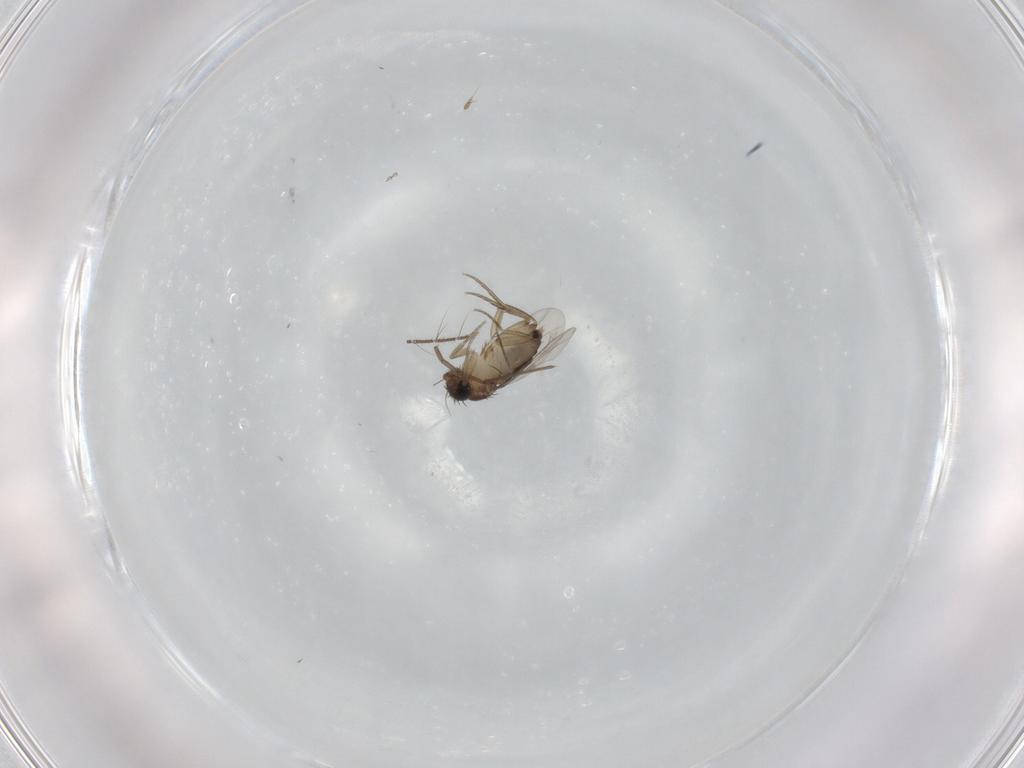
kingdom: Animalia
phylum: Arthropoda
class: Insecta
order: Diptera
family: Phoridae
